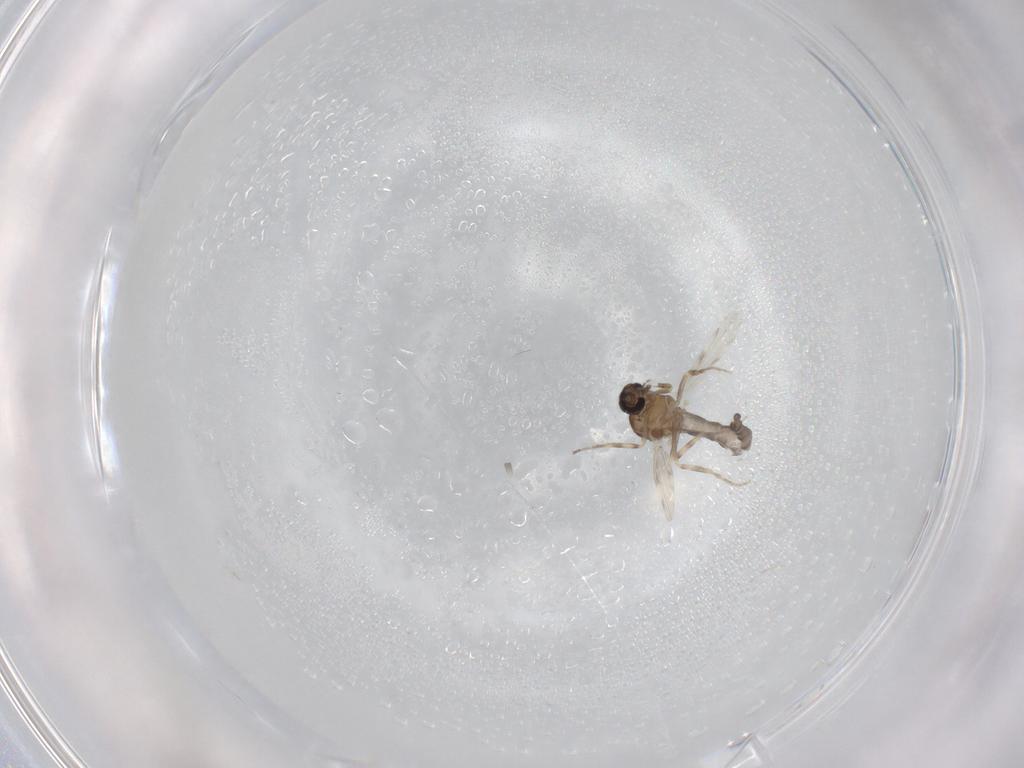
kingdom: Animalia
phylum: Arthropoda
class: Insecta
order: Diptera
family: Ceratopogonidae
